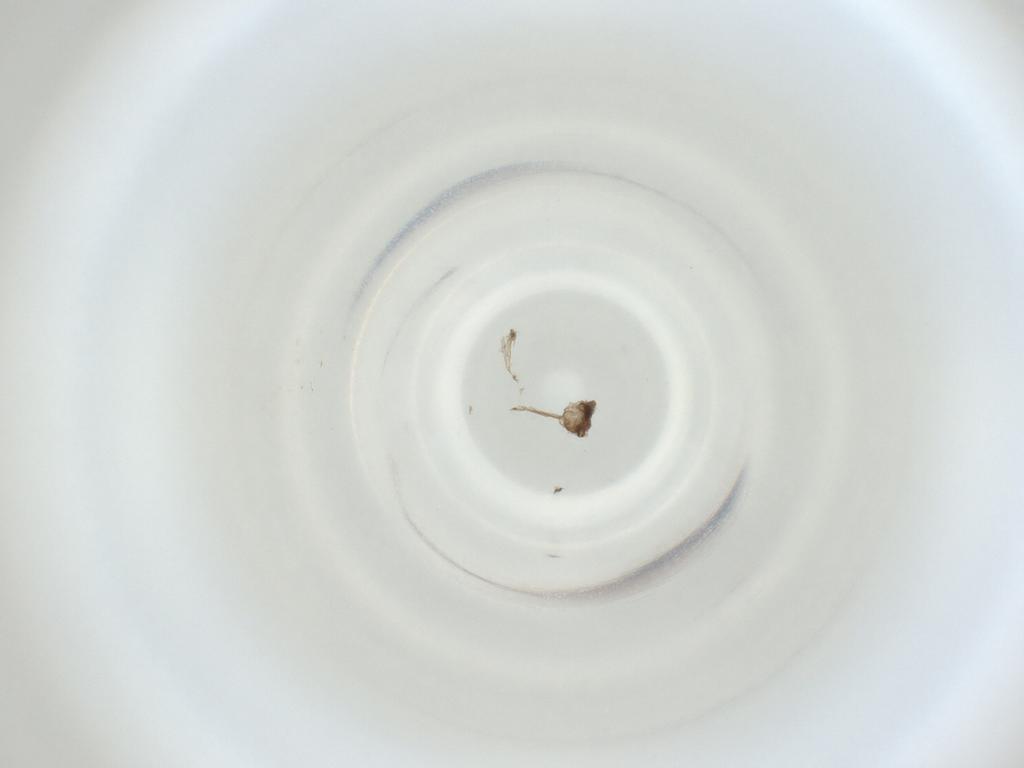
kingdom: Animalia
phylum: Arthropoda
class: Insecta
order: Diptera
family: Cecidomyiidae
